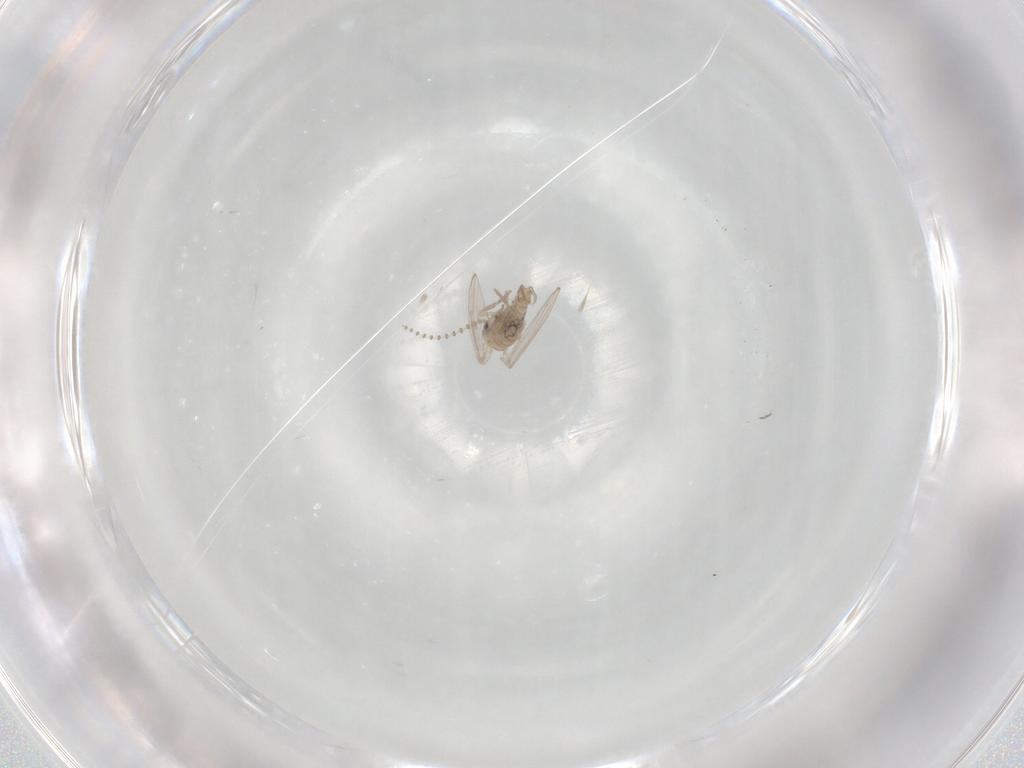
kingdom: Animalia
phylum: Arthropoda
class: Insecta
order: Diptera
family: Psychodidae
